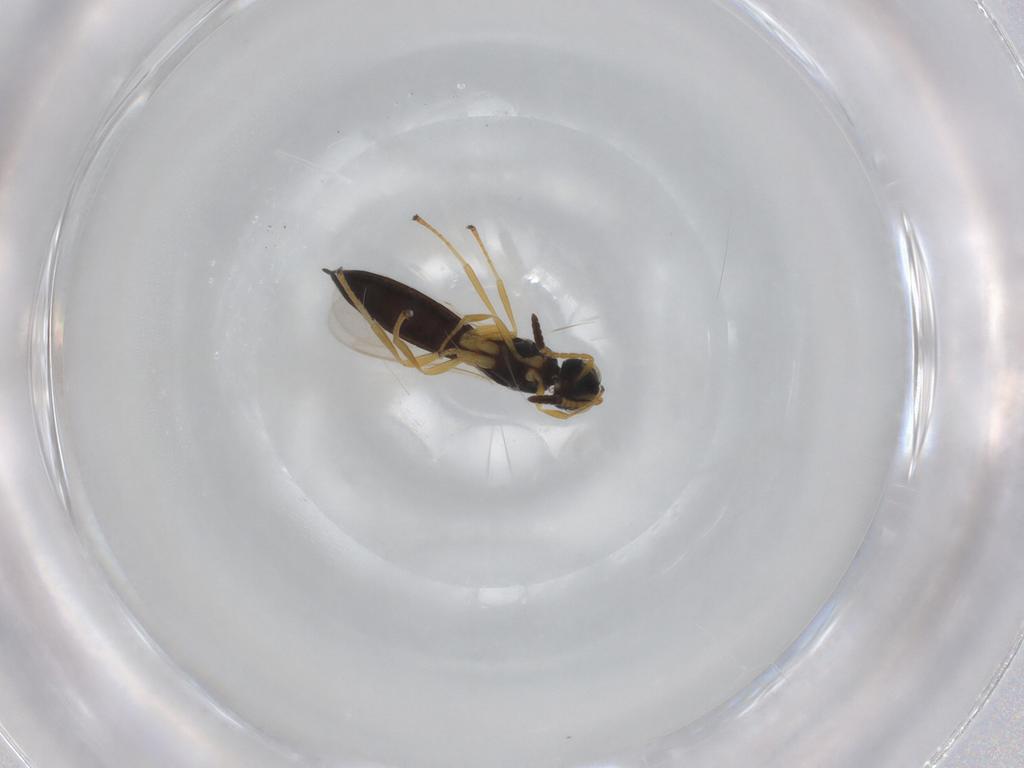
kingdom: Animalia
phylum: Arthropoda
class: Insecta
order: Hymenoptera
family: Scelionidae
